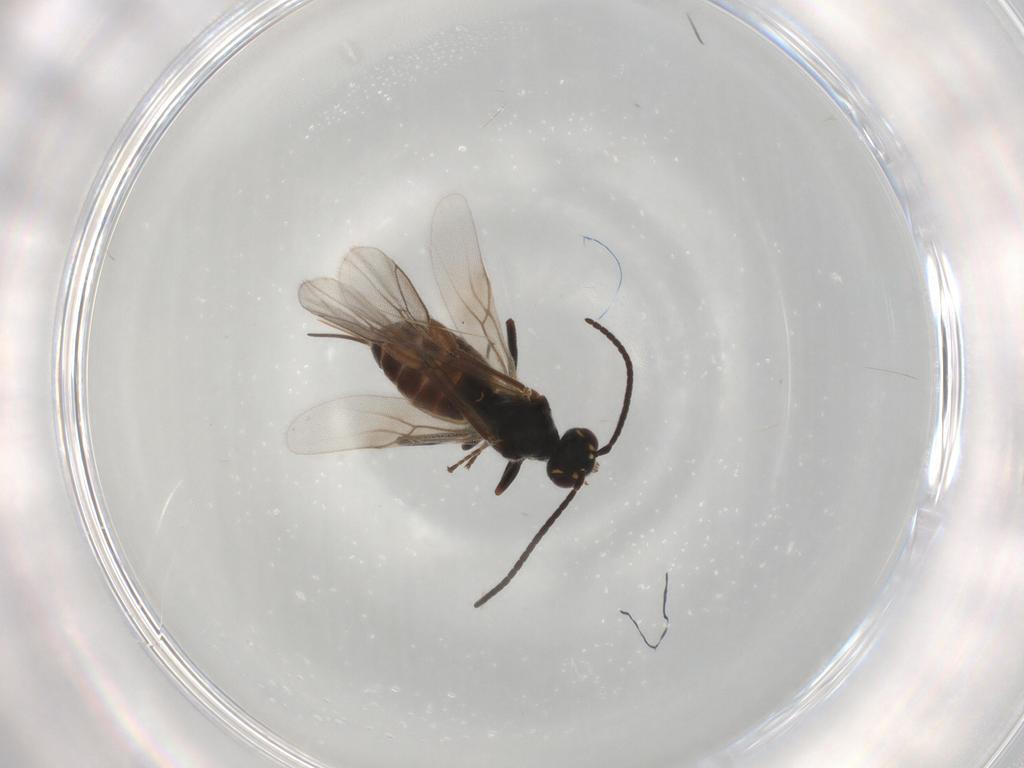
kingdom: Animalia
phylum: Arthropoda
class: Insecta
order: Hymenoptera
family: Braconidae
